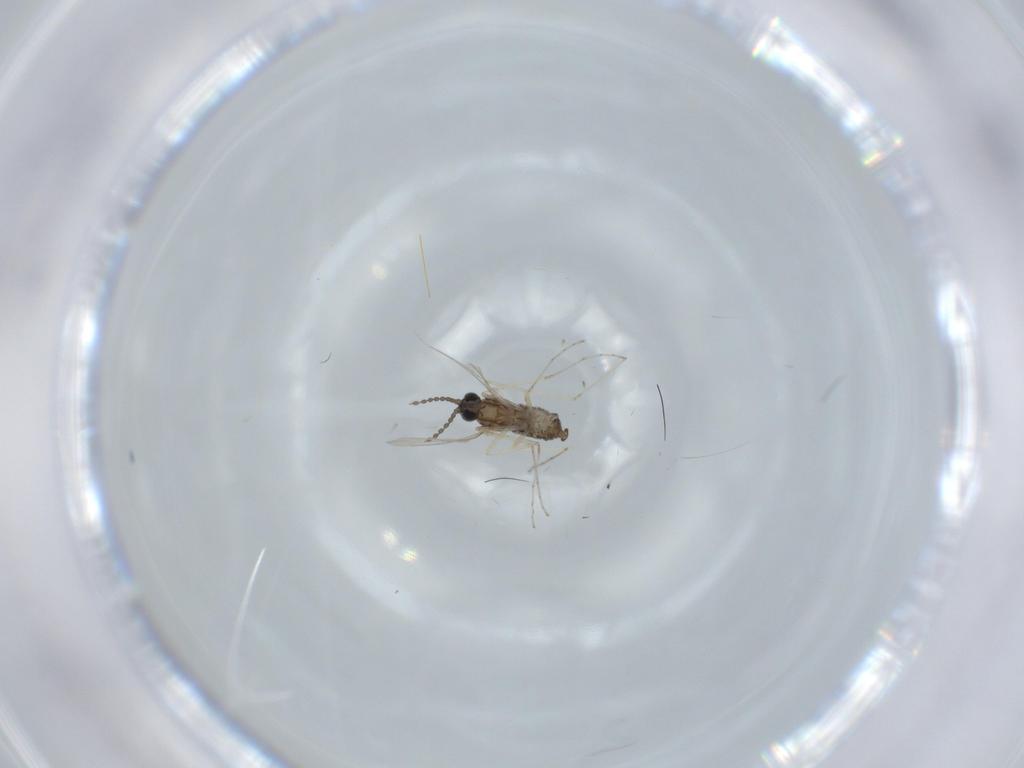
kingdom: Animalia
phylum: Arthropoda
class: Insecta
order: Diptera
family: Cecidomyiidae
